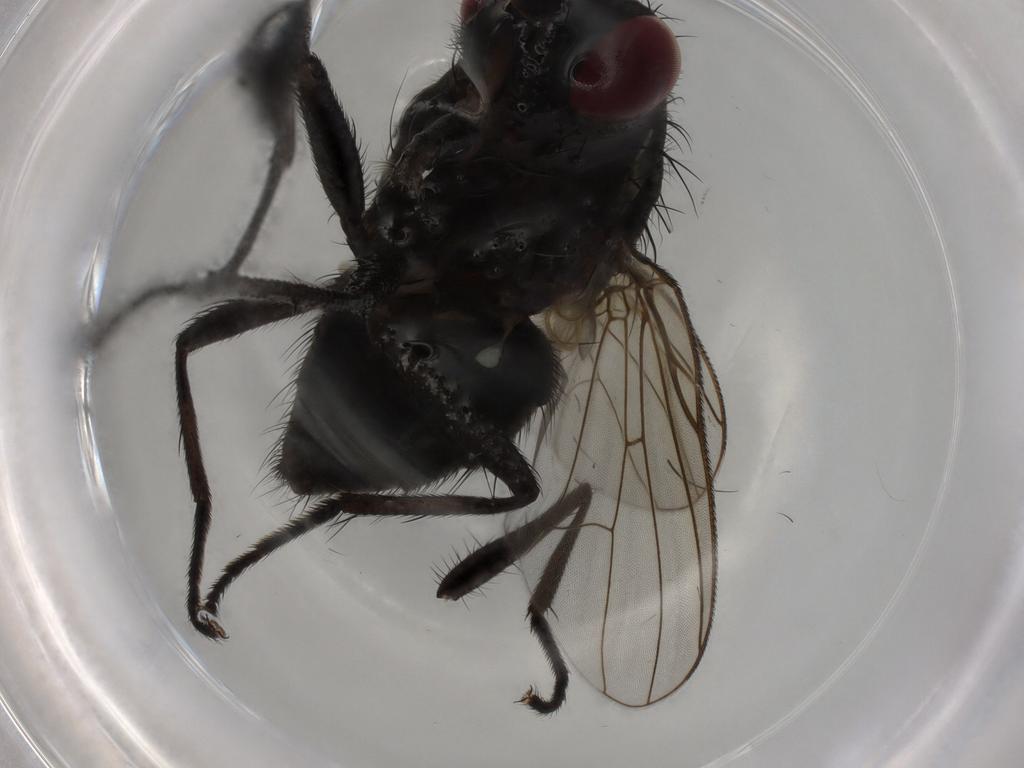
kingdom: Animalia
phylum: Arthropoda
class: Insecta
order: Diptera
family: Muscidae
